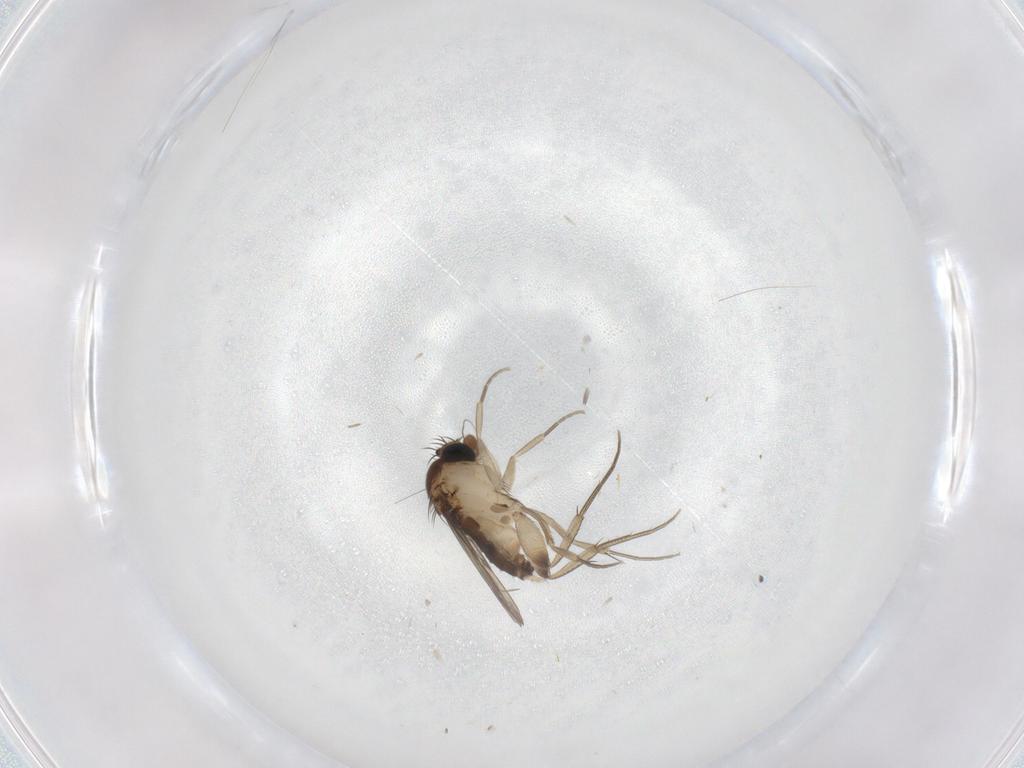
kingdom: Animalia
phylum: Arthropoda
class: Insecta
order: Diptera
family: Phoridae
